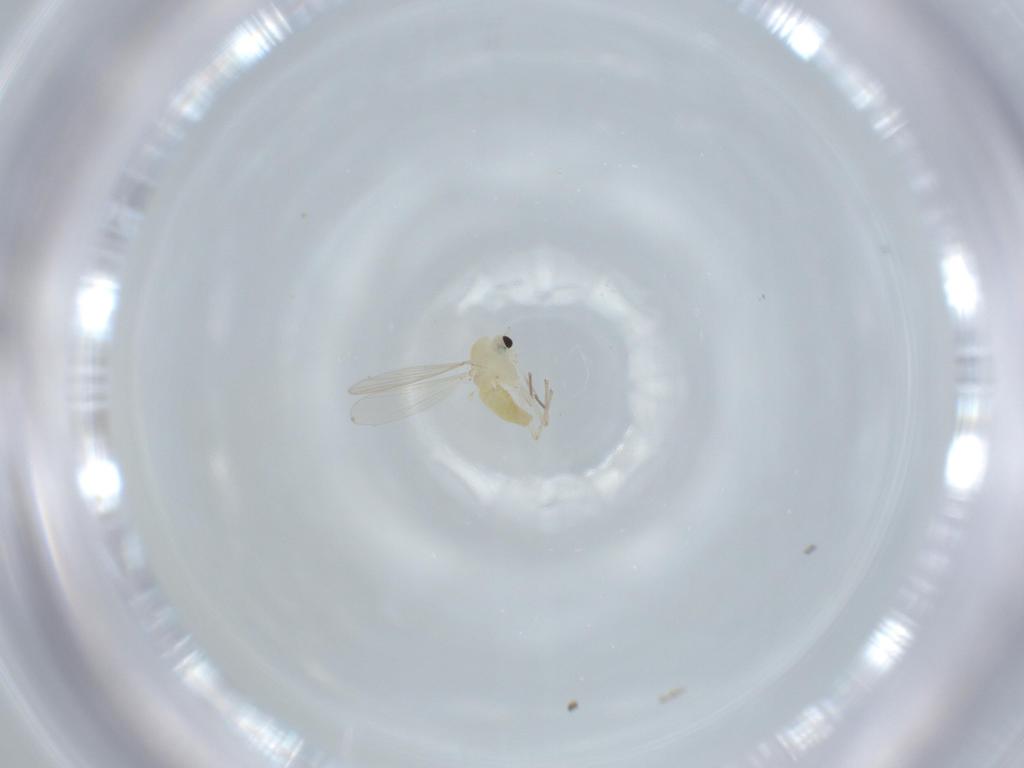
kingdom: Animalia
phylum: Arthropoda
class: Insecta
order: Diptera
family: Chironomidae
